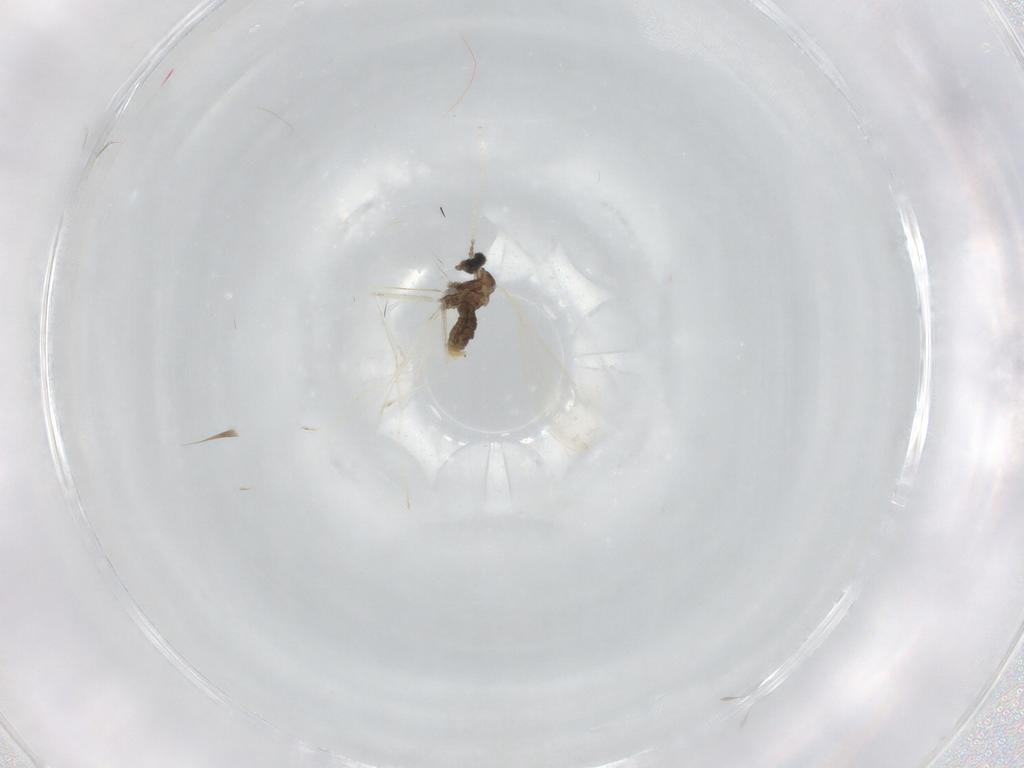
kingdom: Animalia
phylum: Arthropoda
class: Insecta
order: Diptera
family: Cecidomyiidae
